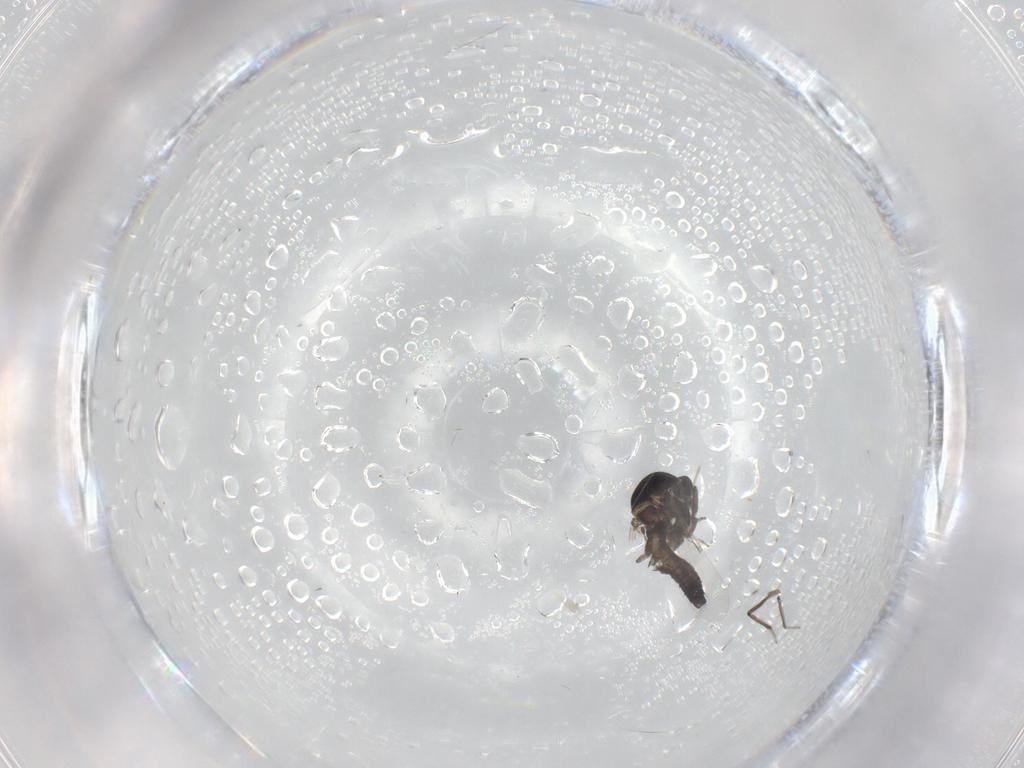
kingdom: Animalia
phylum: Arthropoda
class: Insecta
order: Diptera
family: Ceratopogonidae
